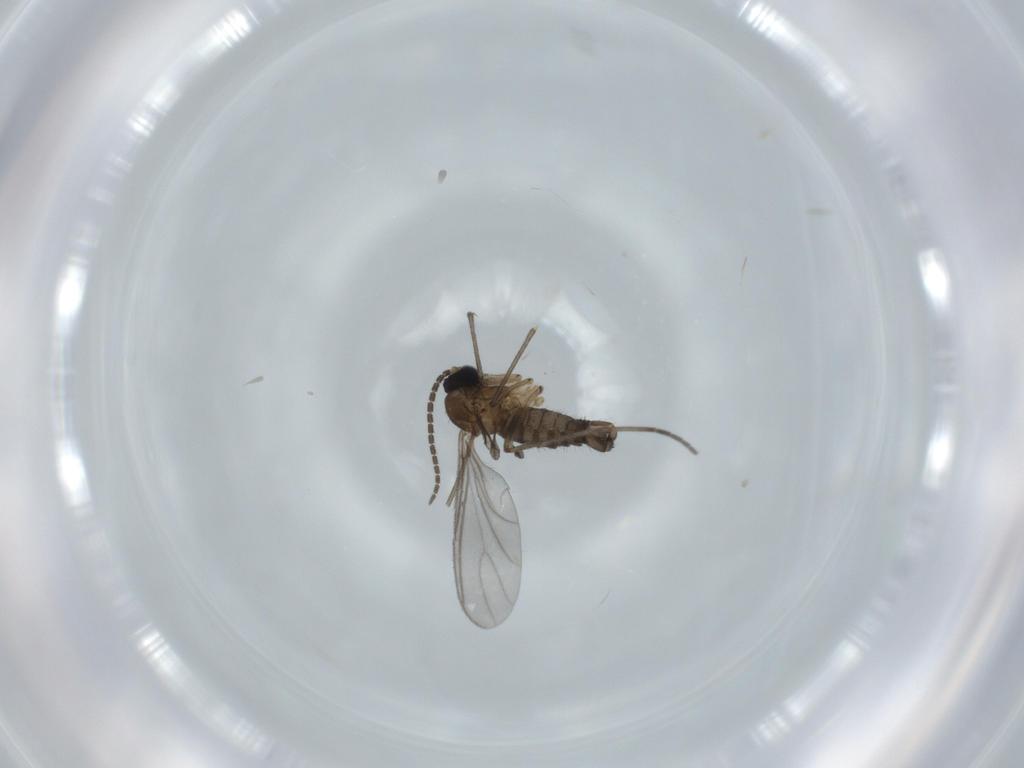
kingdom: Animalia
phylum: Arthropoda
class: Insecta
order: Diptera
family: Sciaridae
